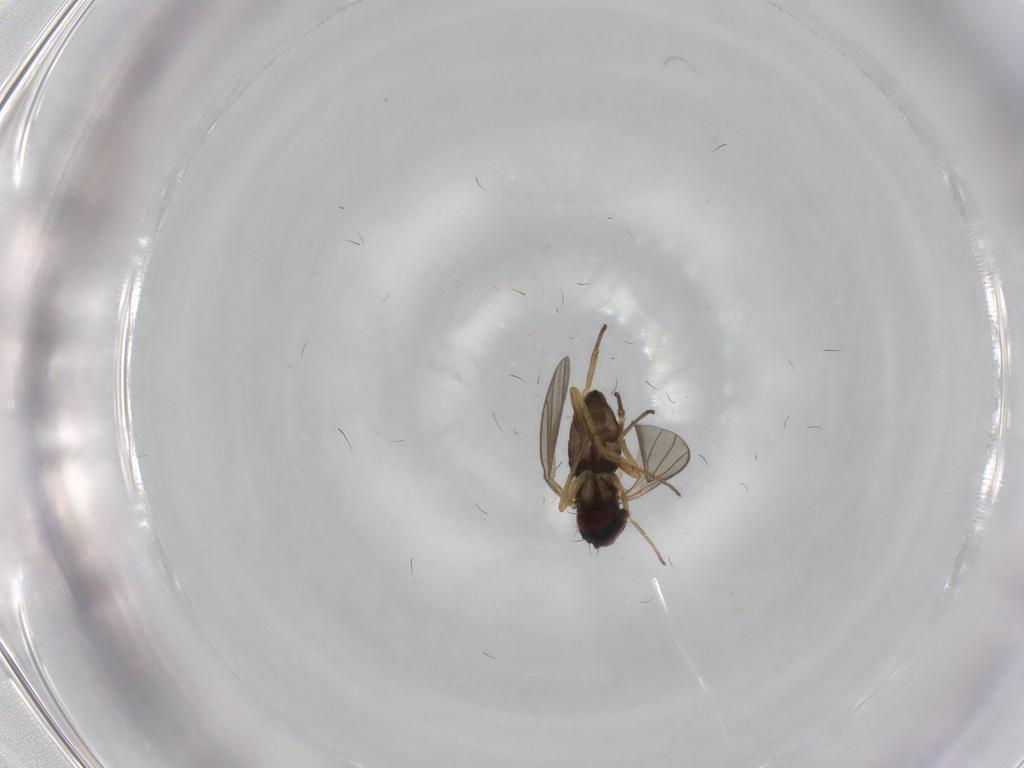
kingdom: Animalia
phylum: Arthropoda
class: Insecta
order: Diptera
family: Dolichopodidae
